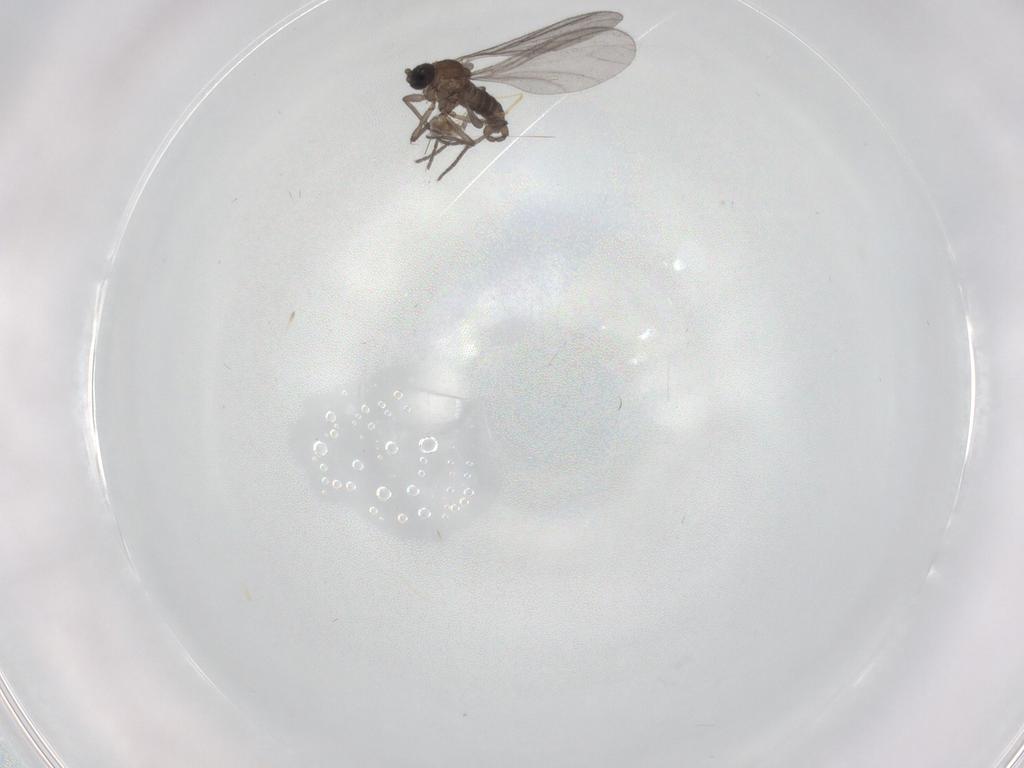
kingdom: Animalia
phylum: Arthropoda
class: Insecta
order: Diptera
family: Sciaridae
